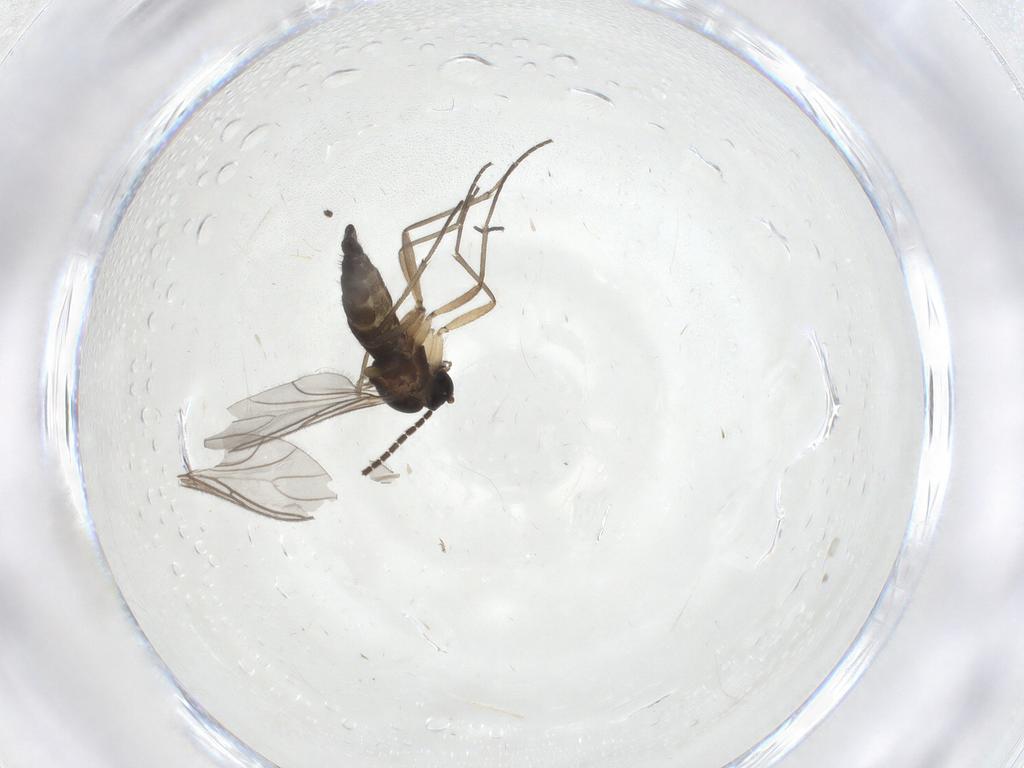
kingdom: Animalia
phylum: Arthropoda
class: Insecta
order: Diptera
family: Sciaridae
